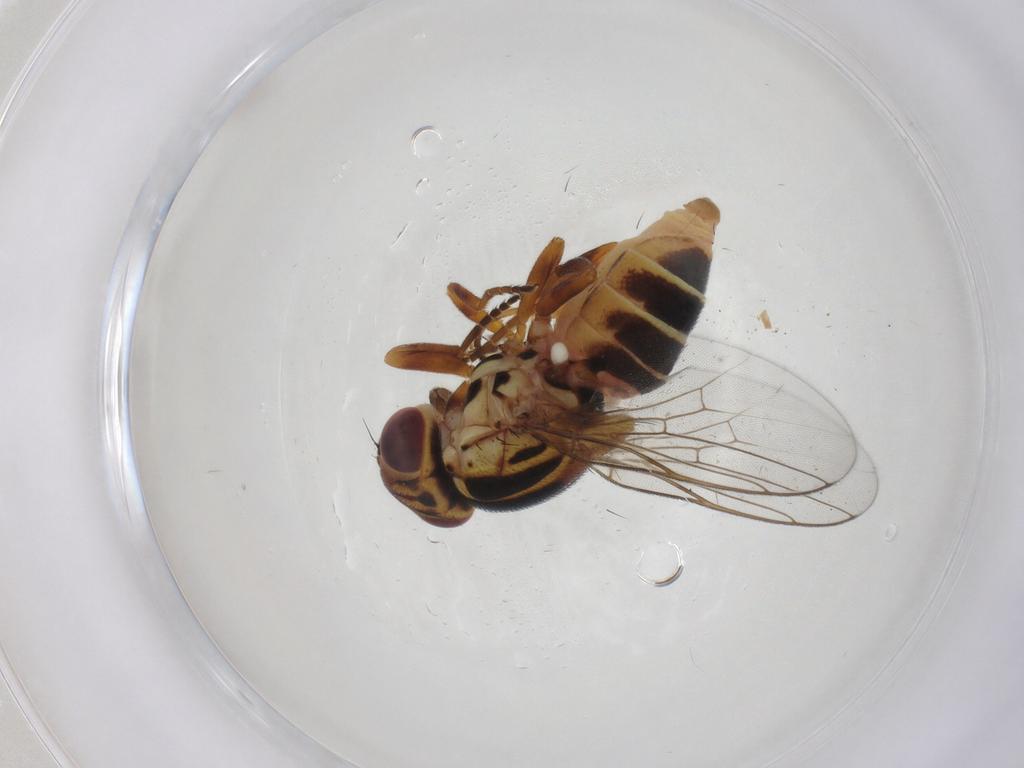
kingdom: Animalia
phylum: Arthropoda
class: Insecta
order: Diptera
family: Chloropidae
